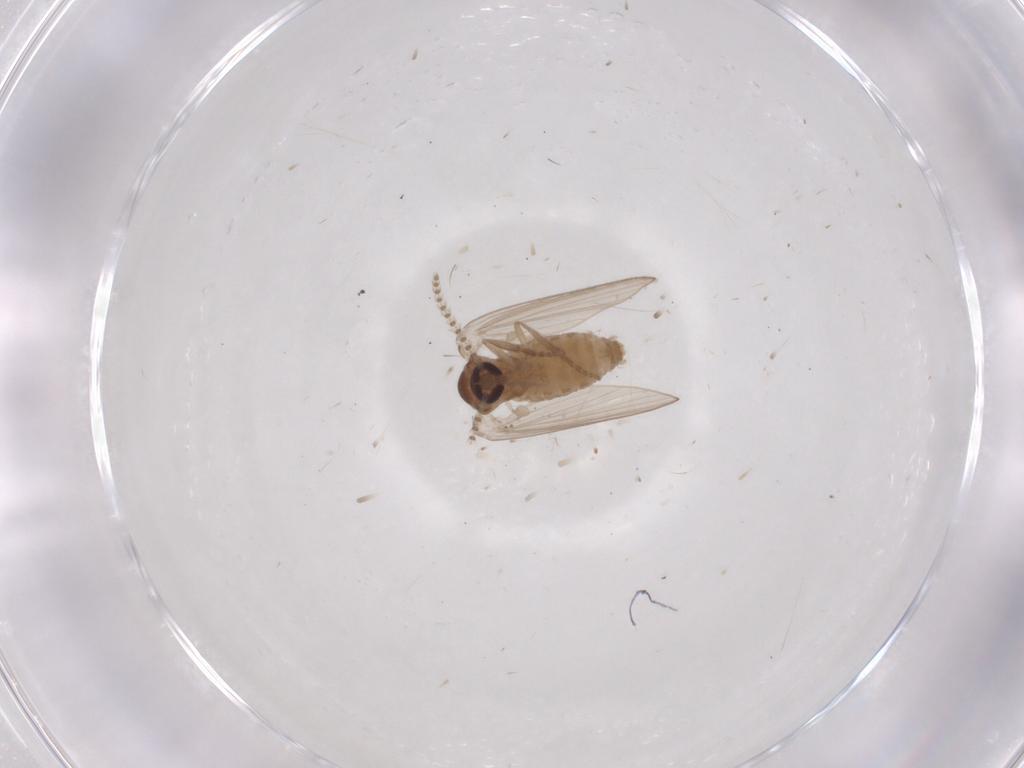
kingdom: Animalia
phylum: Arthropoda
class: Insecta
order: Diptera
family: Psychodidae
